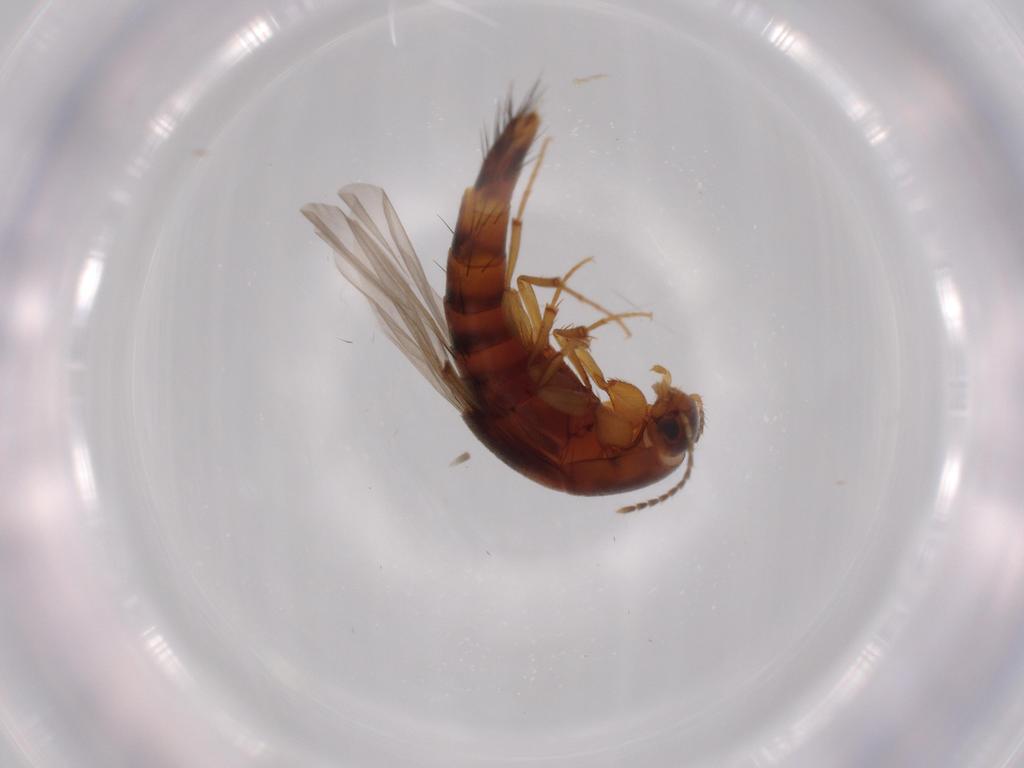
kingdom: Animalia
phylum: Arthropoda
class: Insecta
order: Coleoptera
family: Staphylinidae
